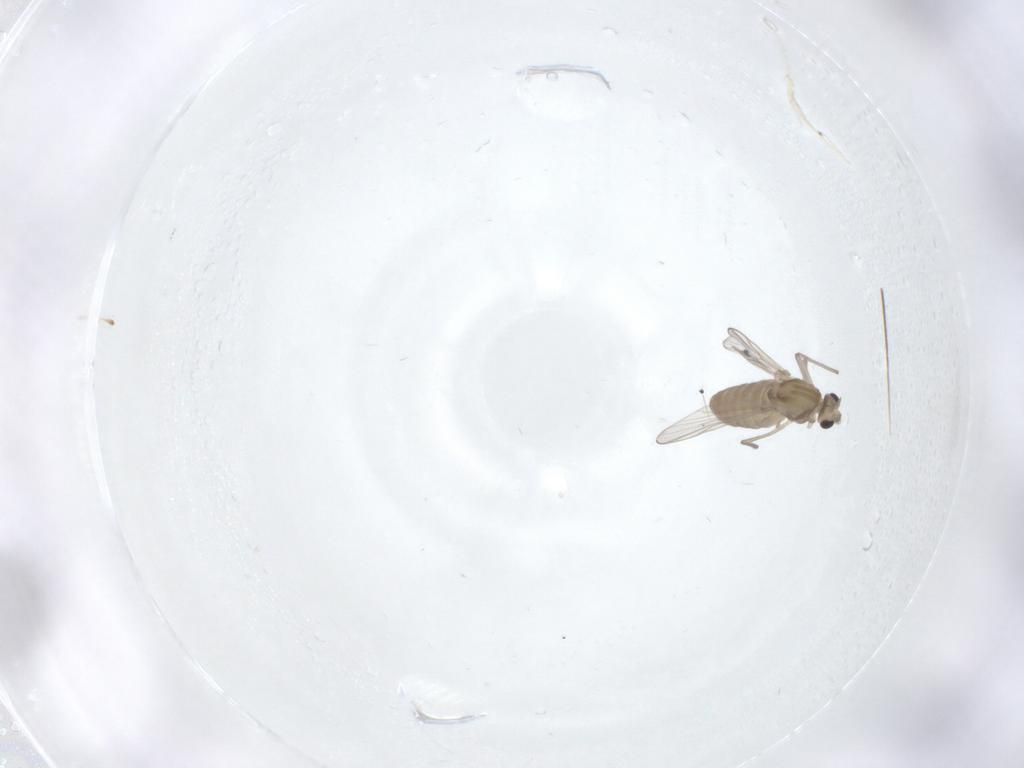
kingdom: Animalia
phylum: Arthropoda
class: Insecta
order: Diptera
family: Chironomidae
